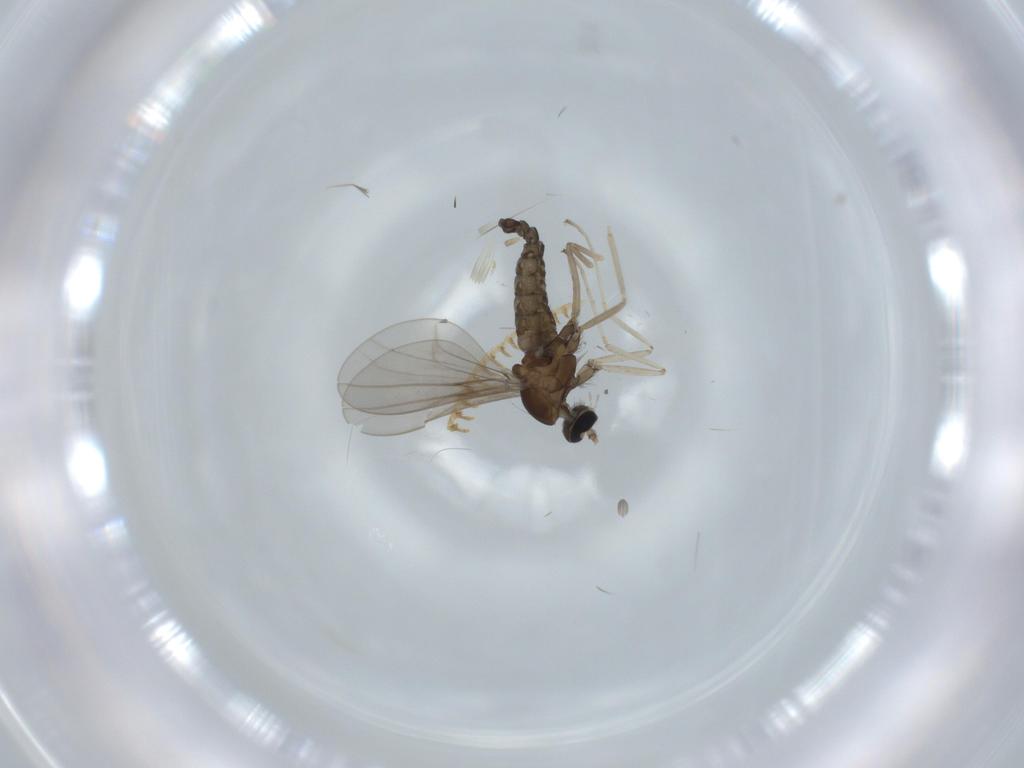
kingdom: Animalia
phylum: Arthropoda
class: Insecta
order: Diptera
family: Cecidomyiidae
